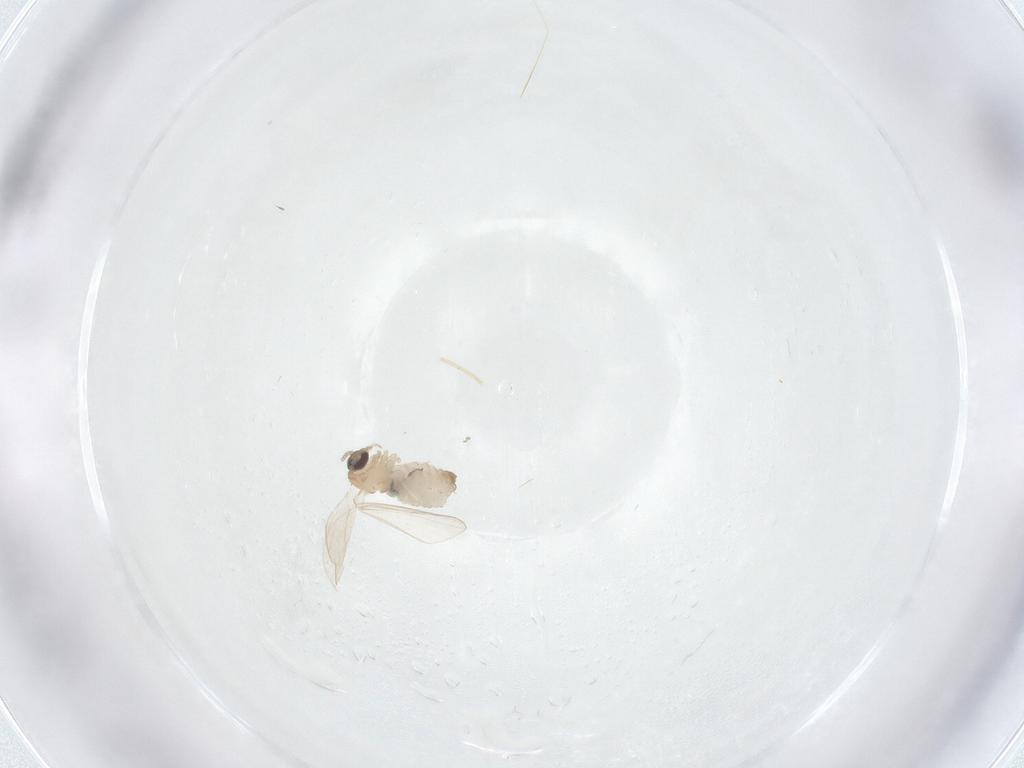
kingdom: Animalia
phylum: Arthropoda
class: Insecta
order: Diptera
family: Psychodidae
